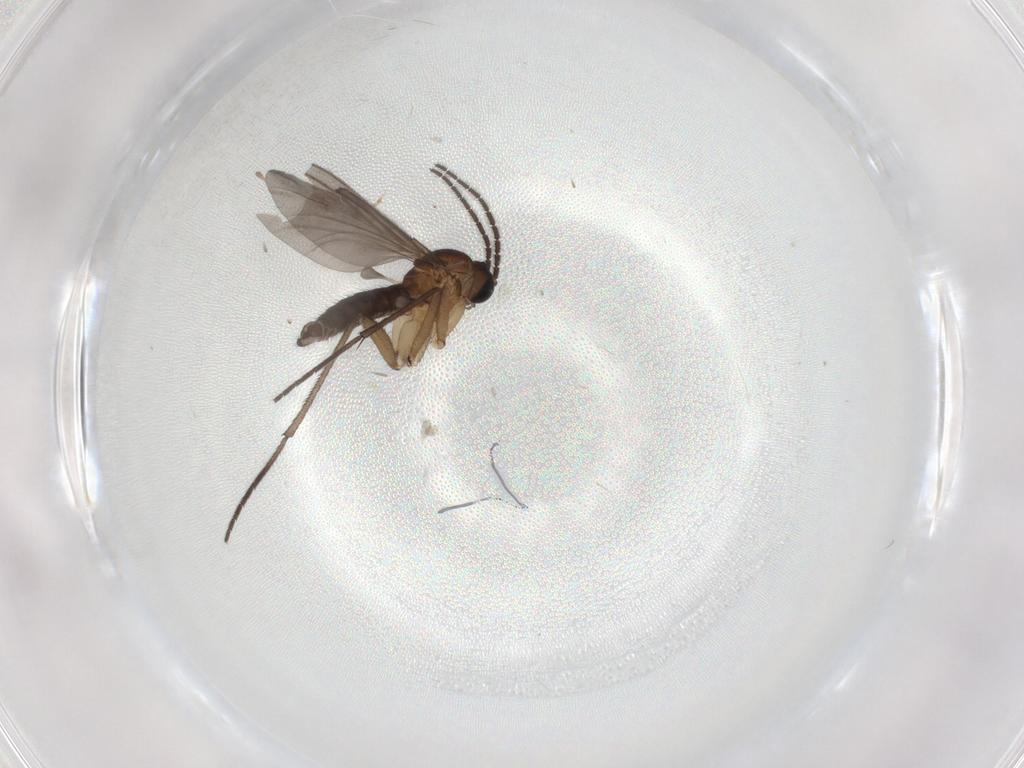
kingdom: Animalia
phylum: Arthropoda
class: Insecta
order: Diptera
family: Sciaridae
